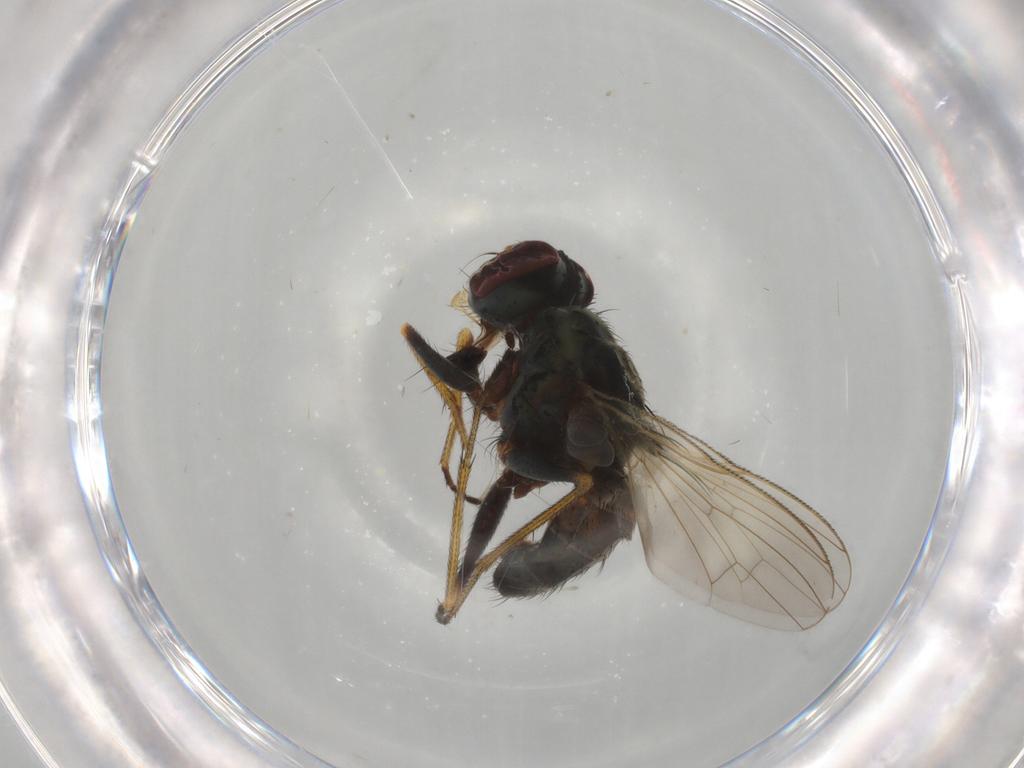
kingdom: Animalia
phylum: Arthropoda
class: Insecta
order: Diptera
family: Muscidae
